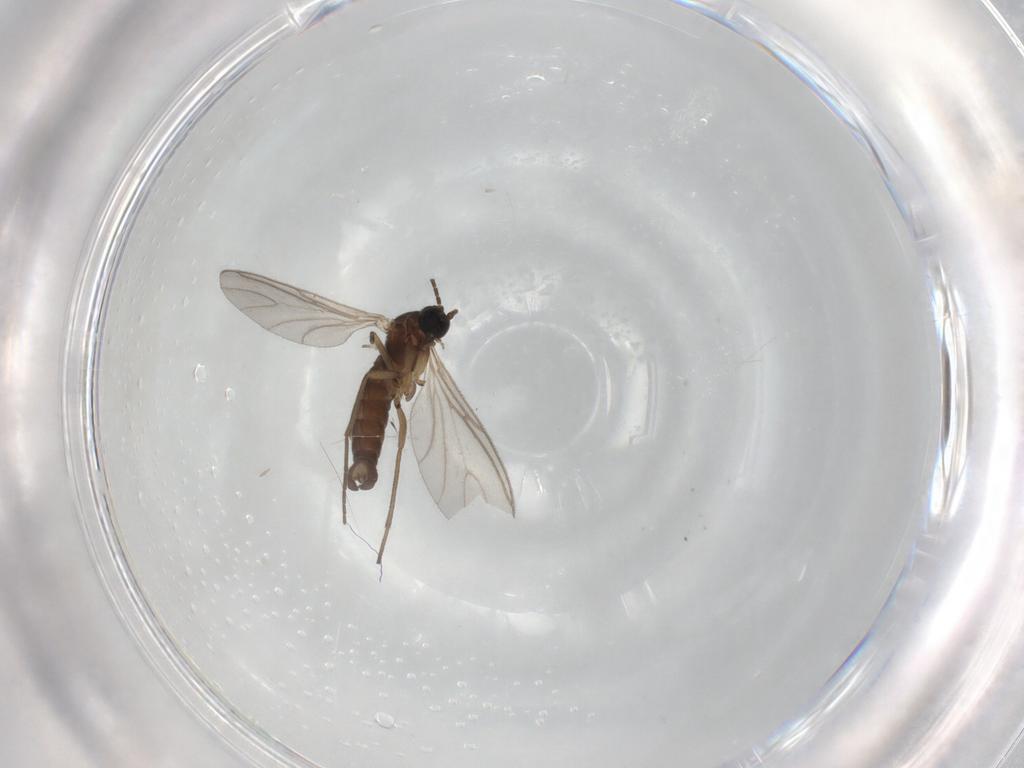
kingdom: Animalia
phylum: Arthropoda
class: Insecta
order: Diptera
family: Sciaridae
